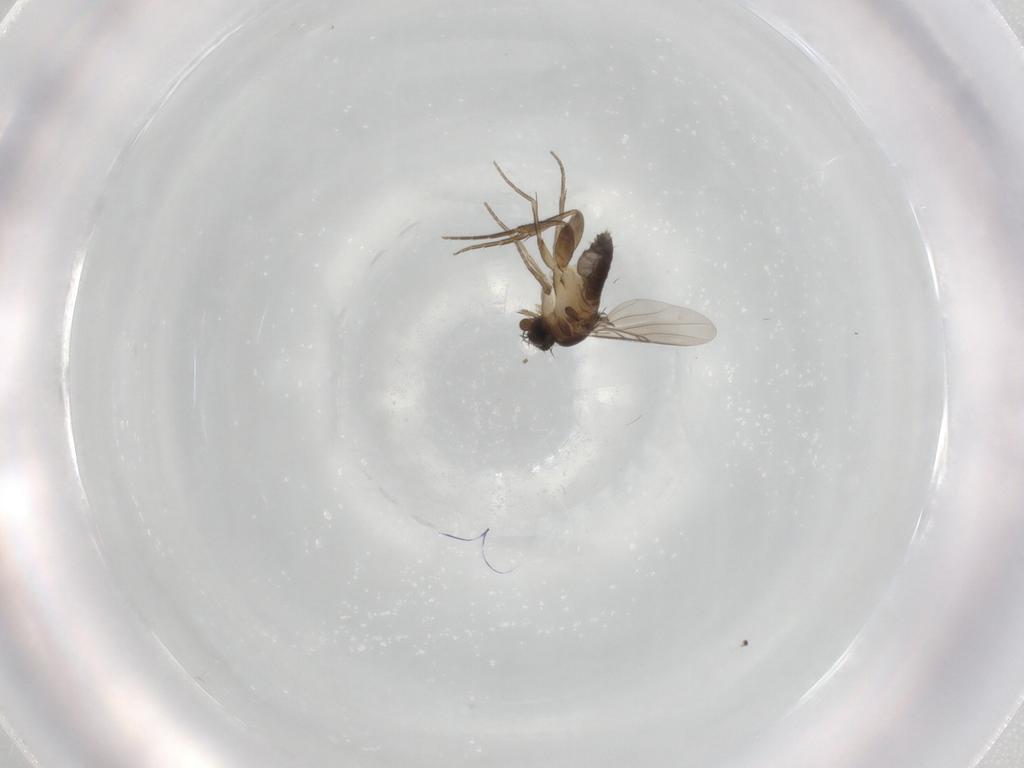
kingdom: Animalia
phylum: Arthropoda
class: Insecta
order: Diptera
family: Phoridae
